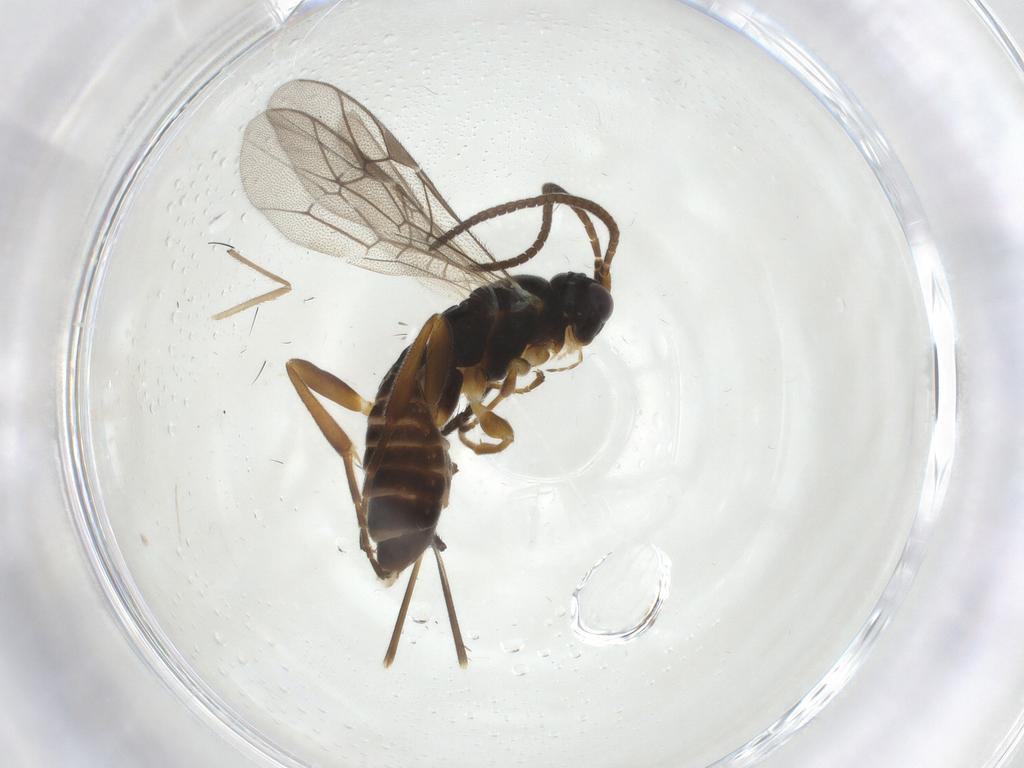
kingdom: Animalia
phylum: Arthropoda
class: Insecta
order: Hymenoptera
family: Ichneumonidae
